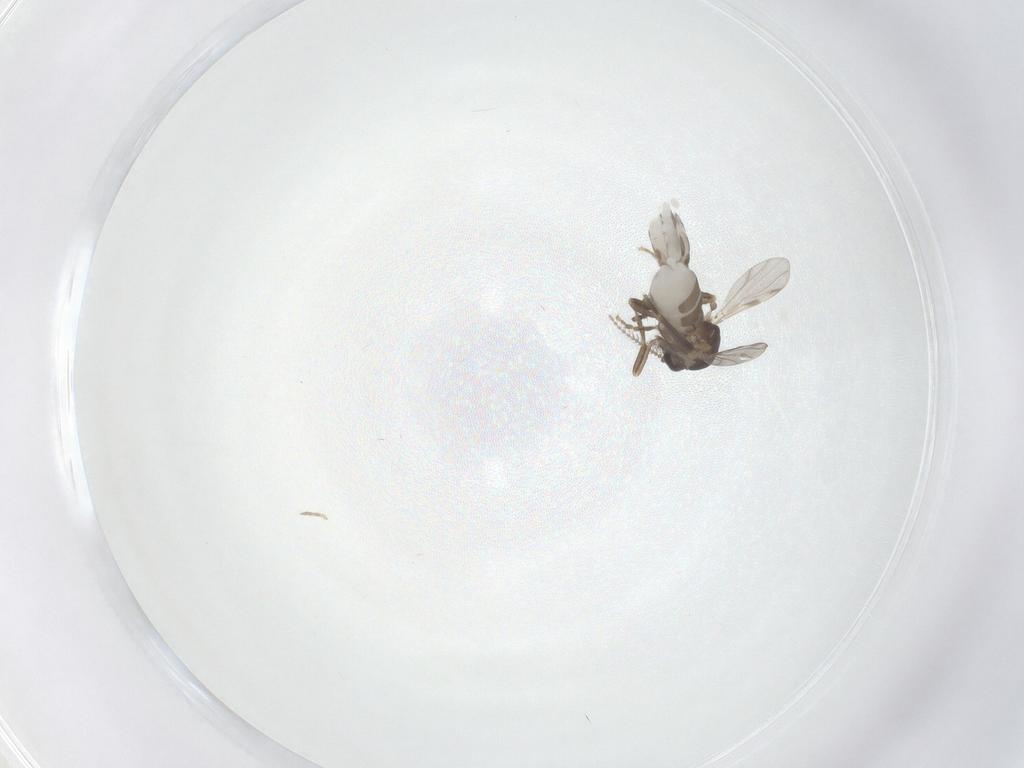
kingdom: Animalia
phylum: Arthropoda
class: Insecta
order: Diptera
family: Ceratopogonidae
